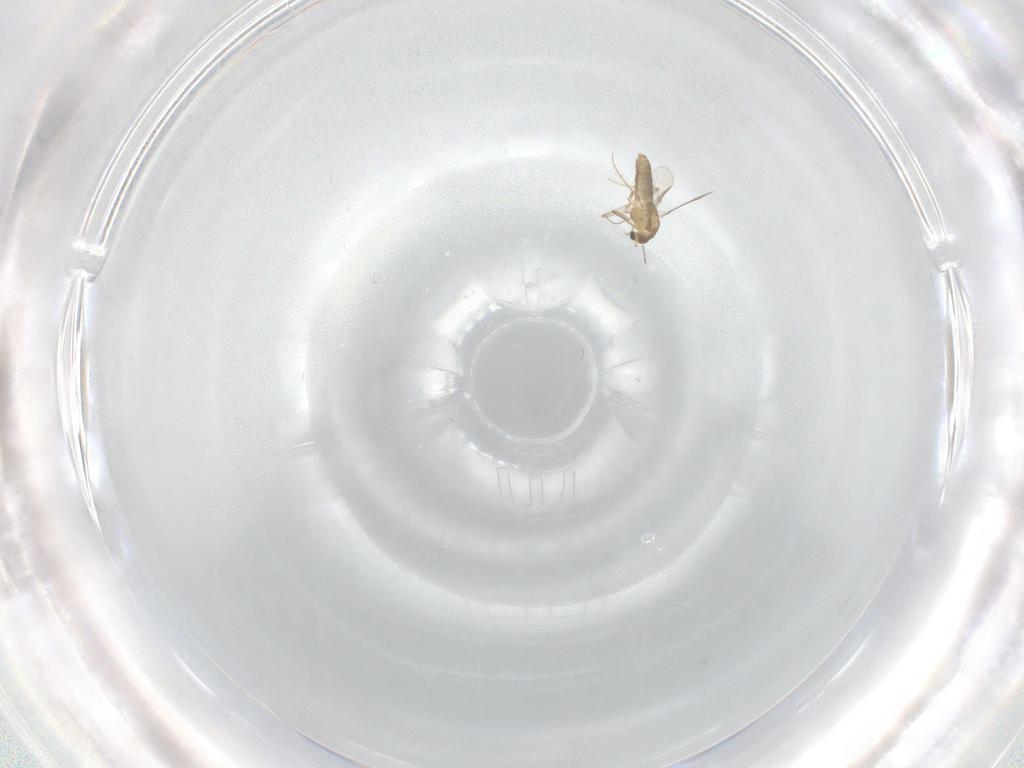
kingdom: Animalia
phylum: Arthropoda
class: Insecta
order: Diptera
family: Chironomidae
